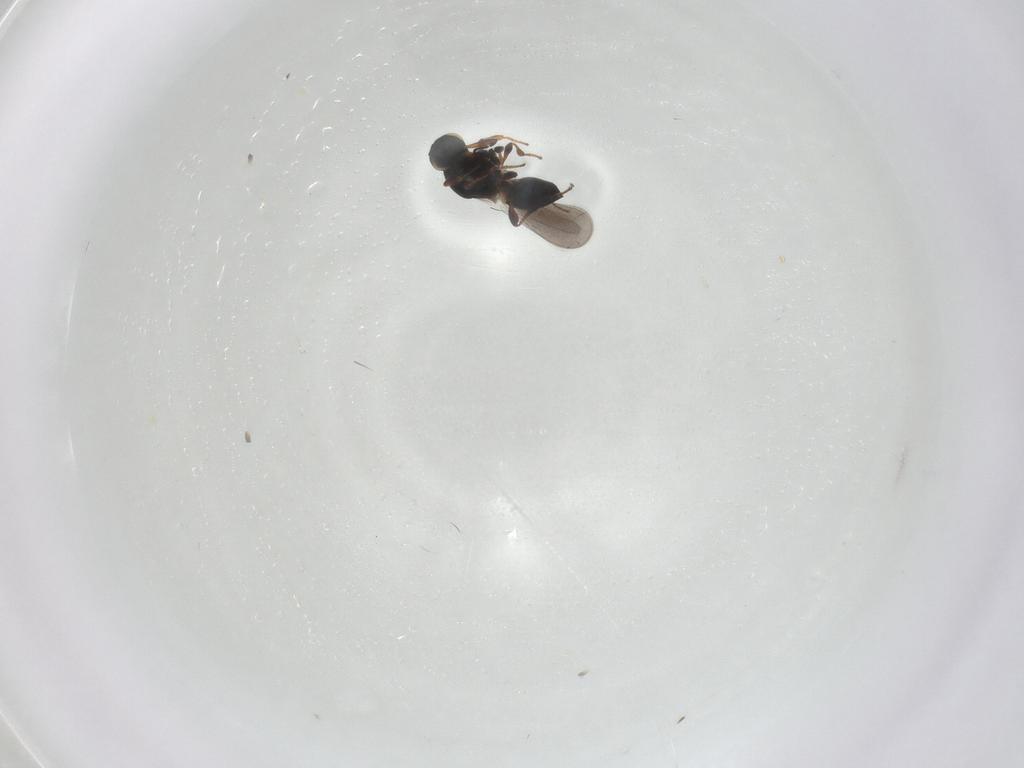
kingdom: Animalia
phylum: Arthropoda
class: Insecta
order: Hymenoptera
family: Platygastridae
